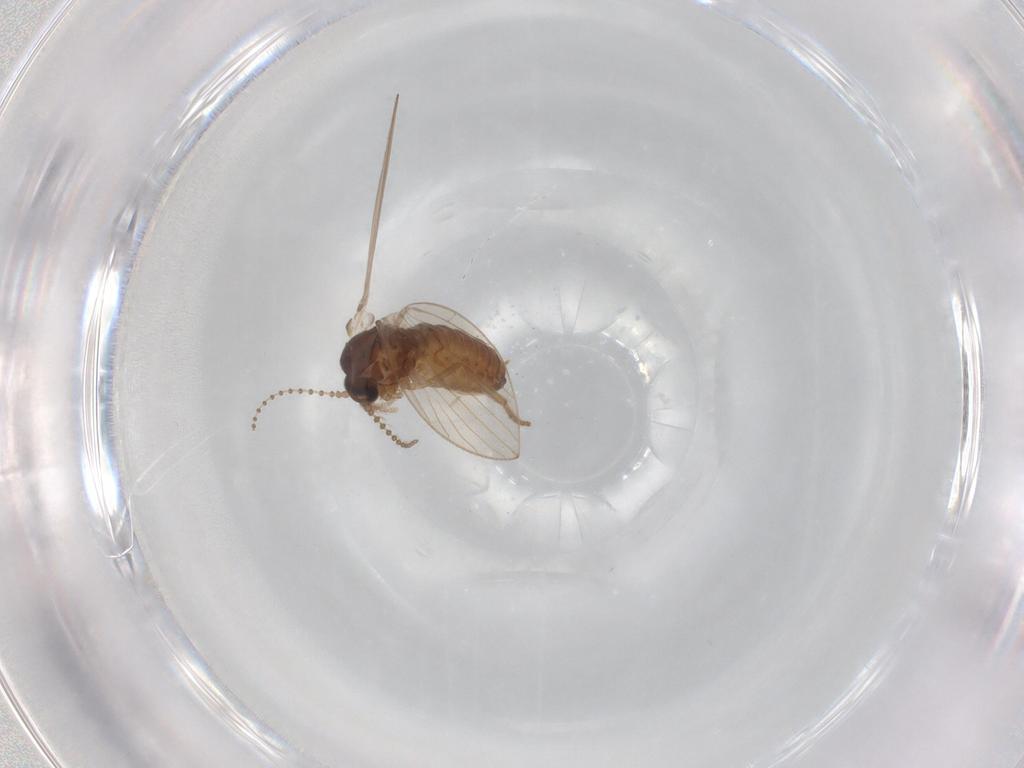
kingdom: Animalia
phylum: Arthropoda
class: Insecta
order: Diptera
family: Psychodidae
